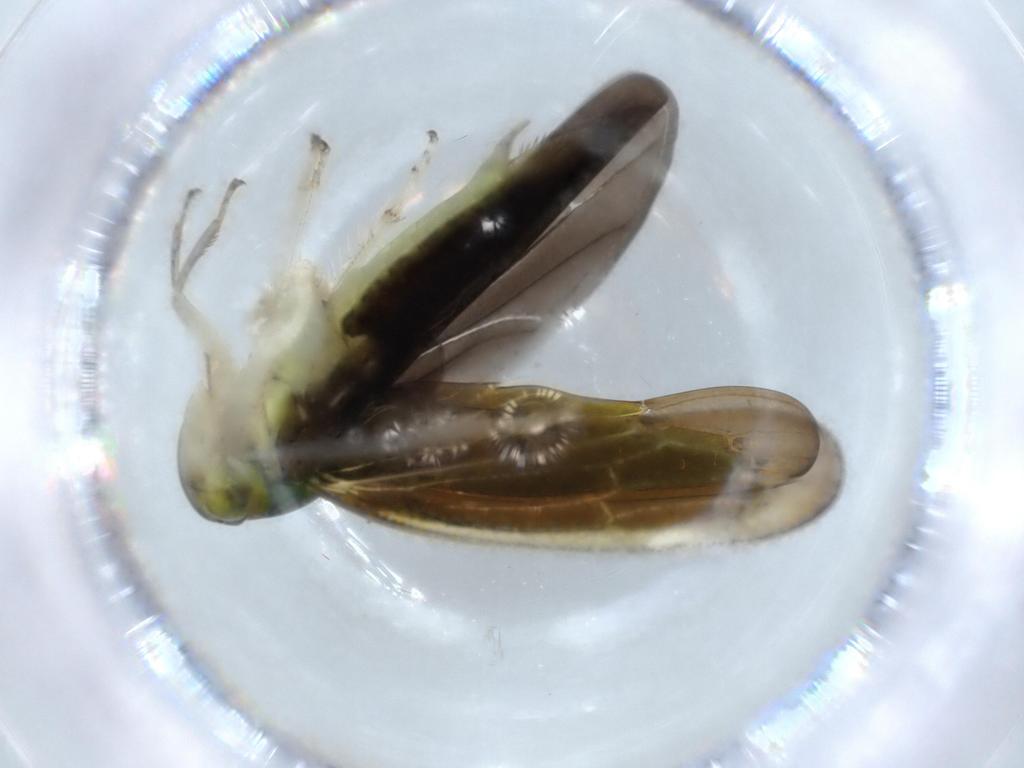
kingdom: Animalia
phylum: Arthropoda
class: Insecta
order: Hemiptera
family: Cicadellidae
